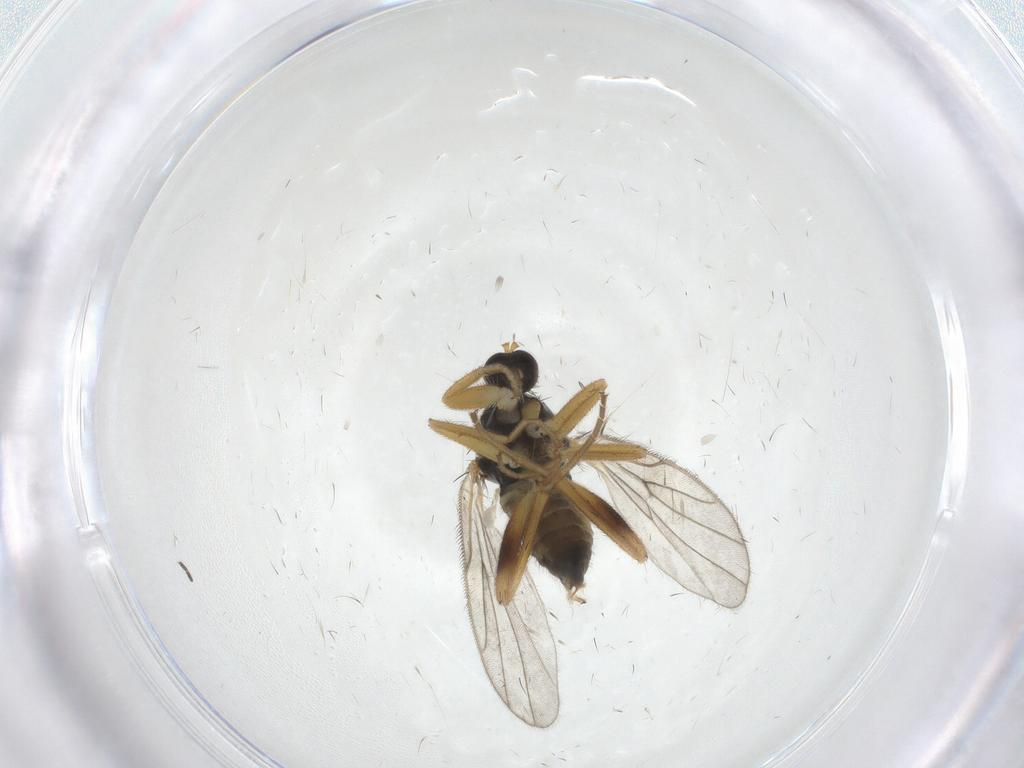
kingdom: Animalia
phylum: Arthropoda
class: Insecta
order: Diptera
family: Hybotidae
